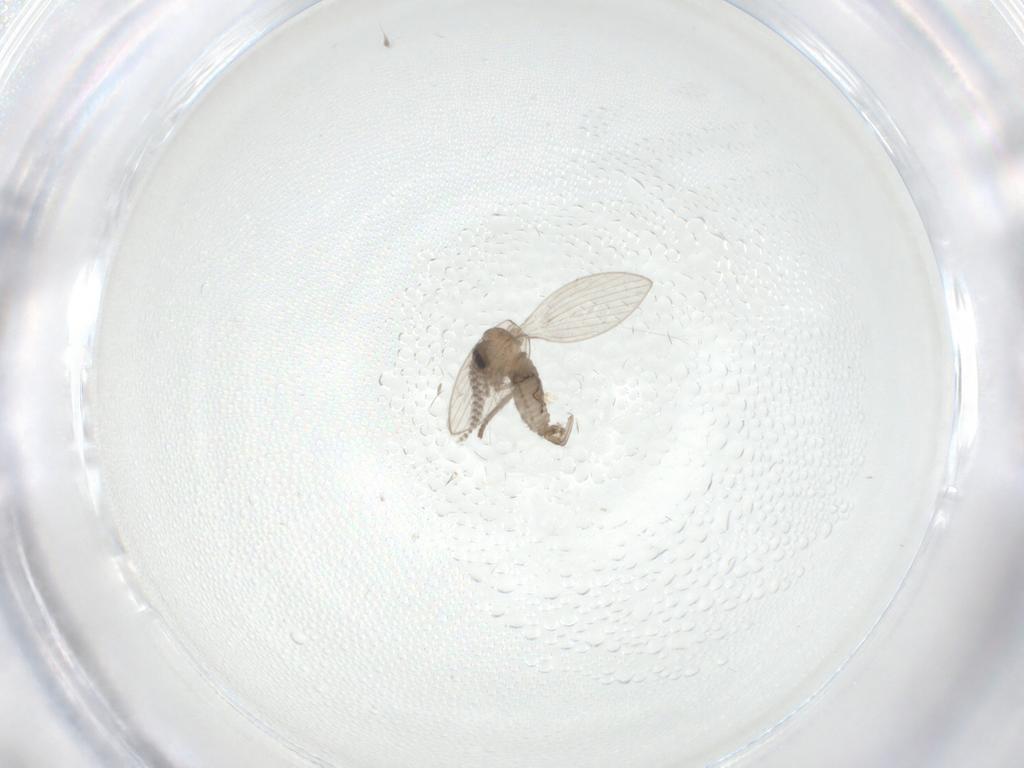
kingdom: Animalia
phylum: Arthropoda
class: Insecta
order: Diptera
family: Psychodidae
